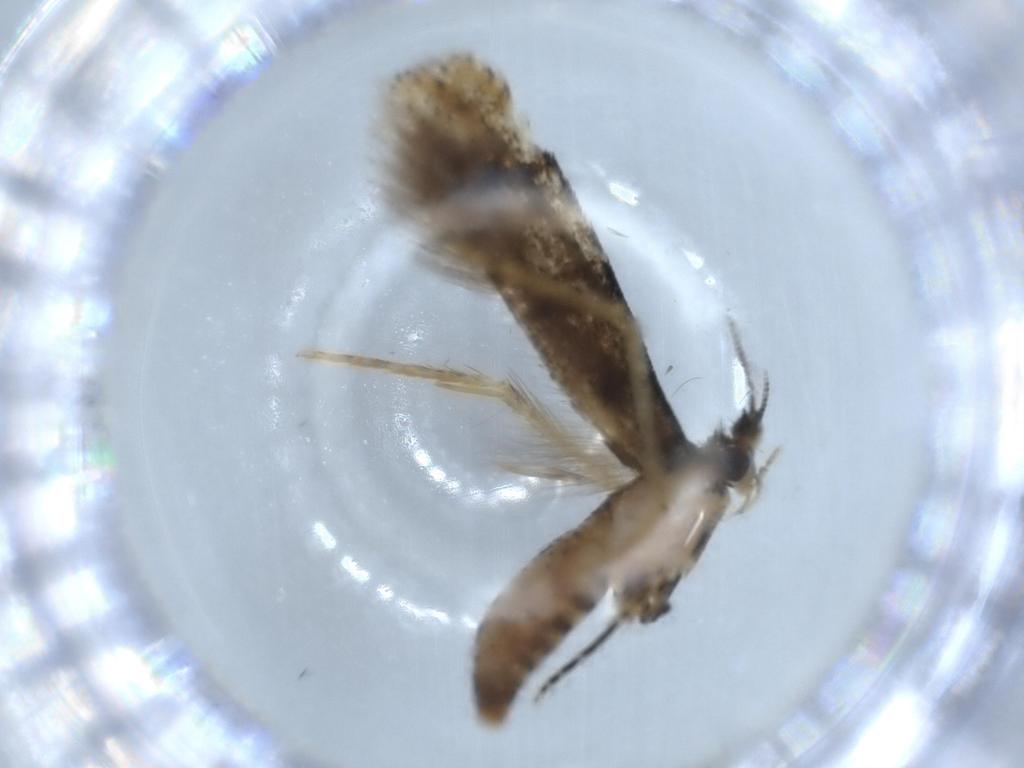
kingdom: Animalia
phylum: Arthropoda
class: Insecta
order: Lepidoptera
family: Tineidae
